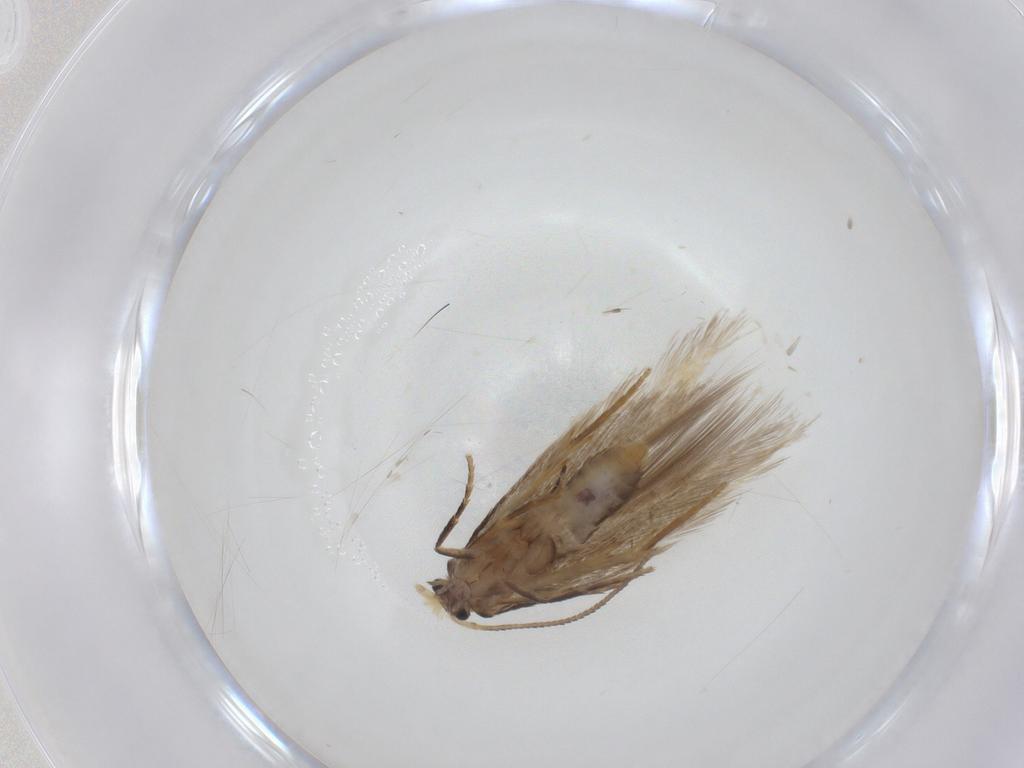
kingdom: Animalia
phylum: Arthropoda
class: Insecta
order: Lepidoptera
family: Nepticulidae
